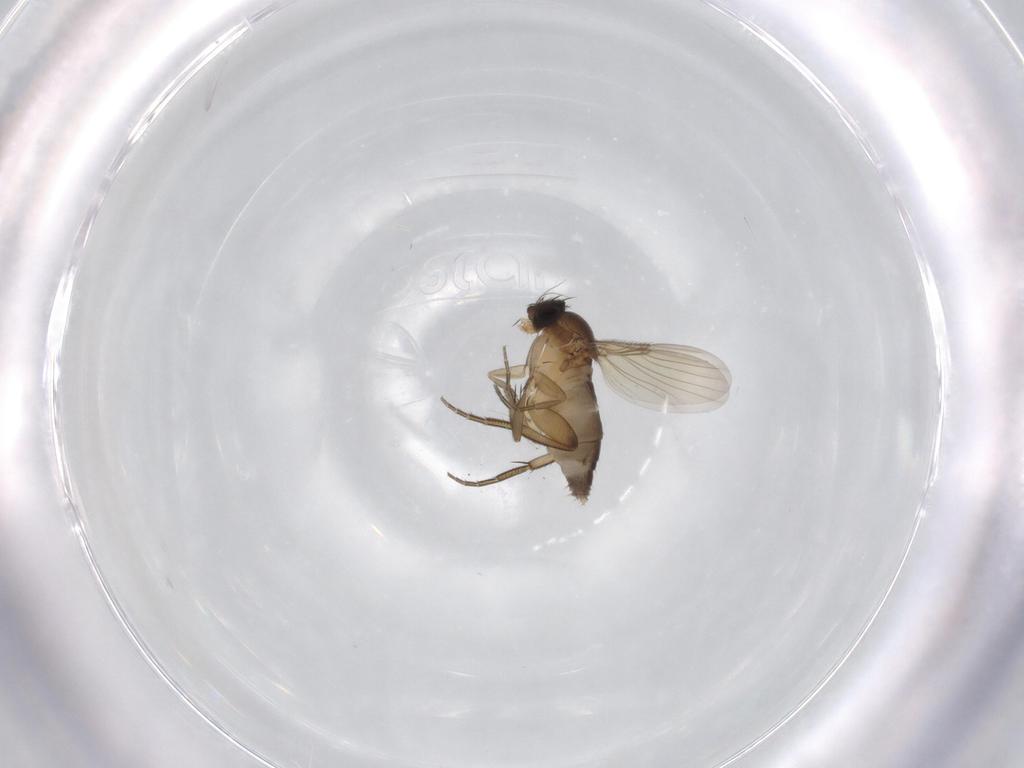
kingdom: Animalia
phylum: Arthropoda
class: Insecta
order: Diptera
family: Phoridae
